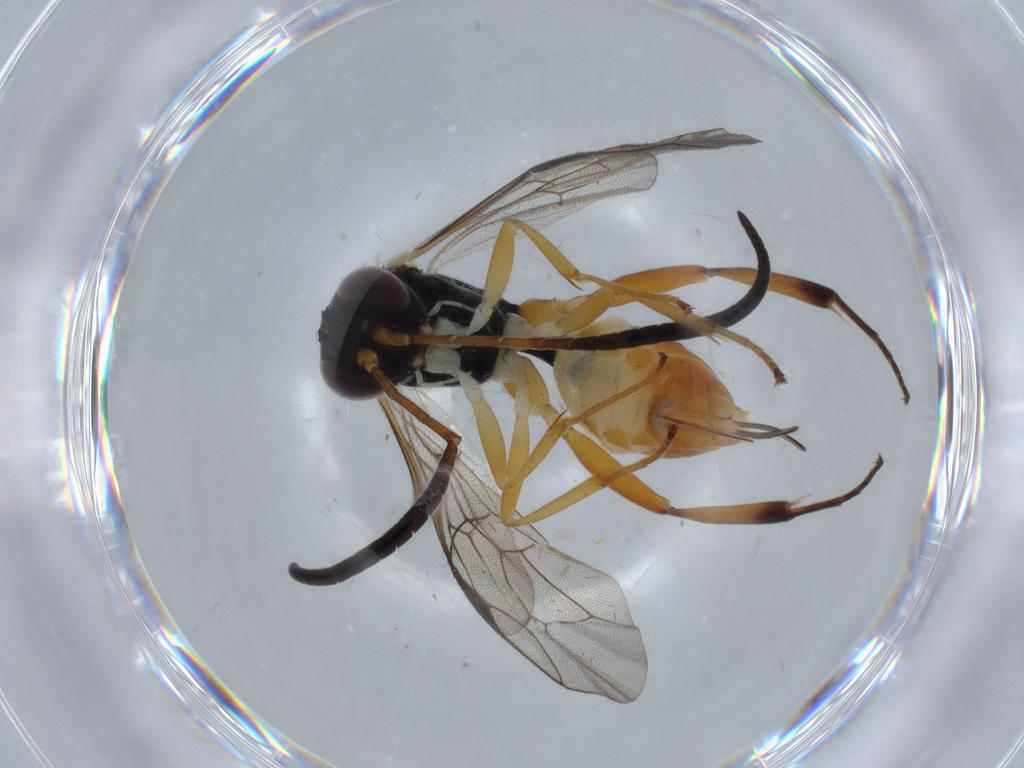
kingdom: Animalia
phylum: Arthropoda
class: Insecta
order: Hymenoptera
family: Ichneumonidae
